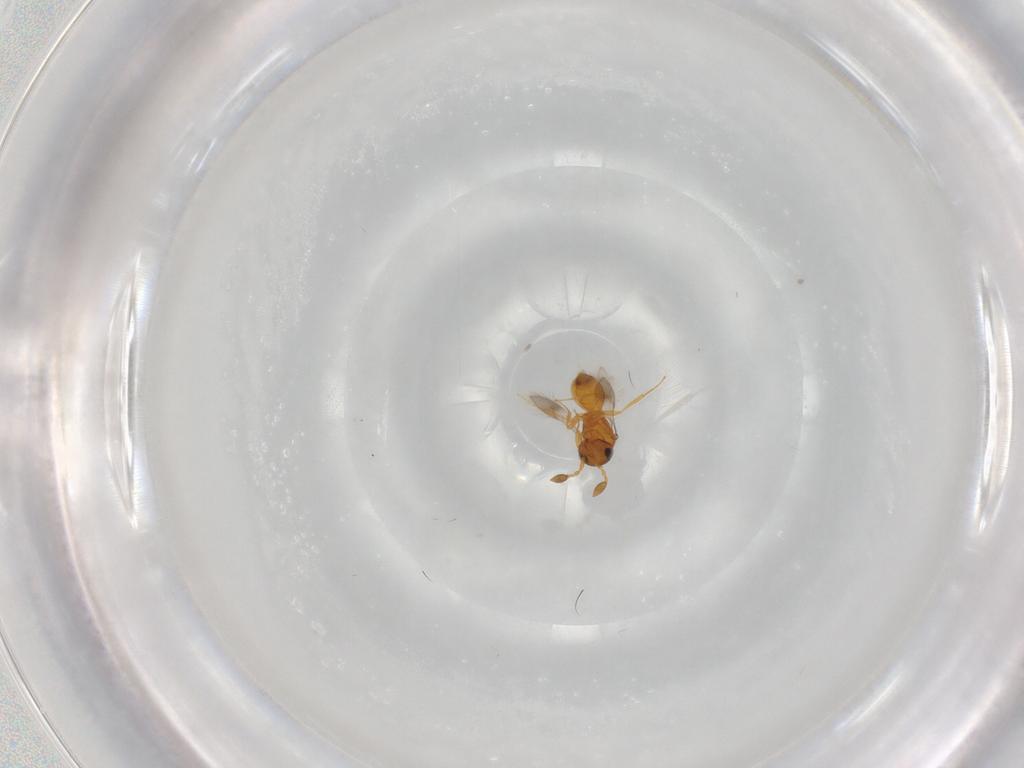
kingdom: Animalia
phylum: Arthropoda
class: Insecta
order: Hymenoptera
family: Scelionidae
